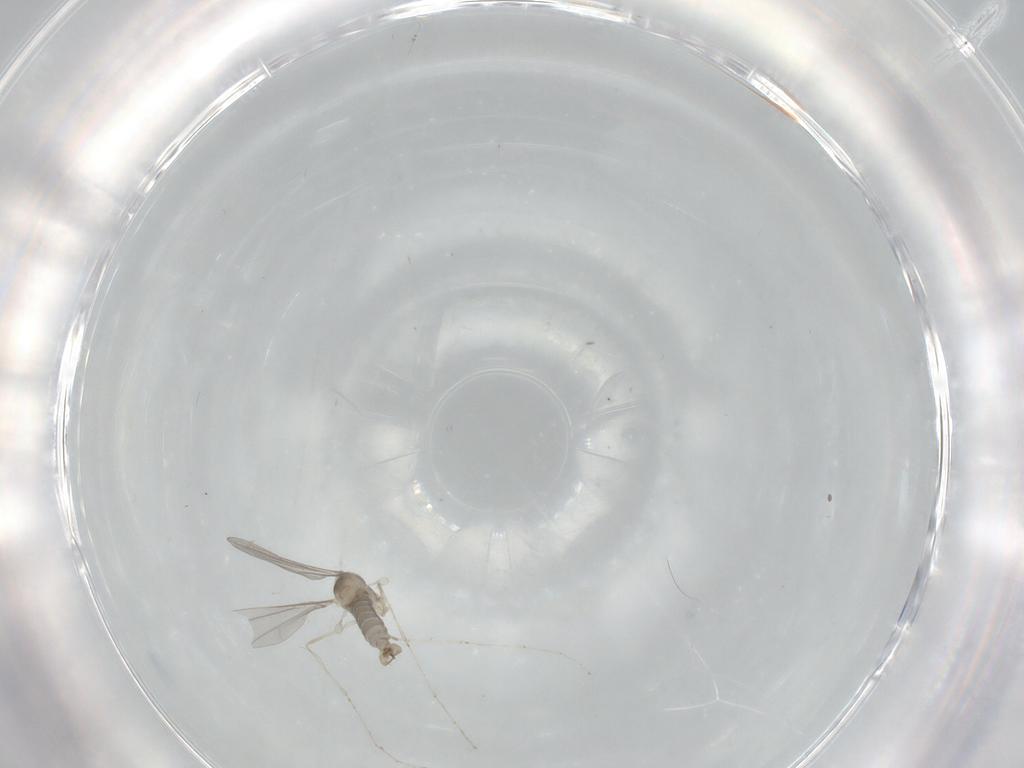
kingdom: Animalia
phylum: Arthropoda
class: Insecta
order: Diptera
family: Cecidomyiidae
